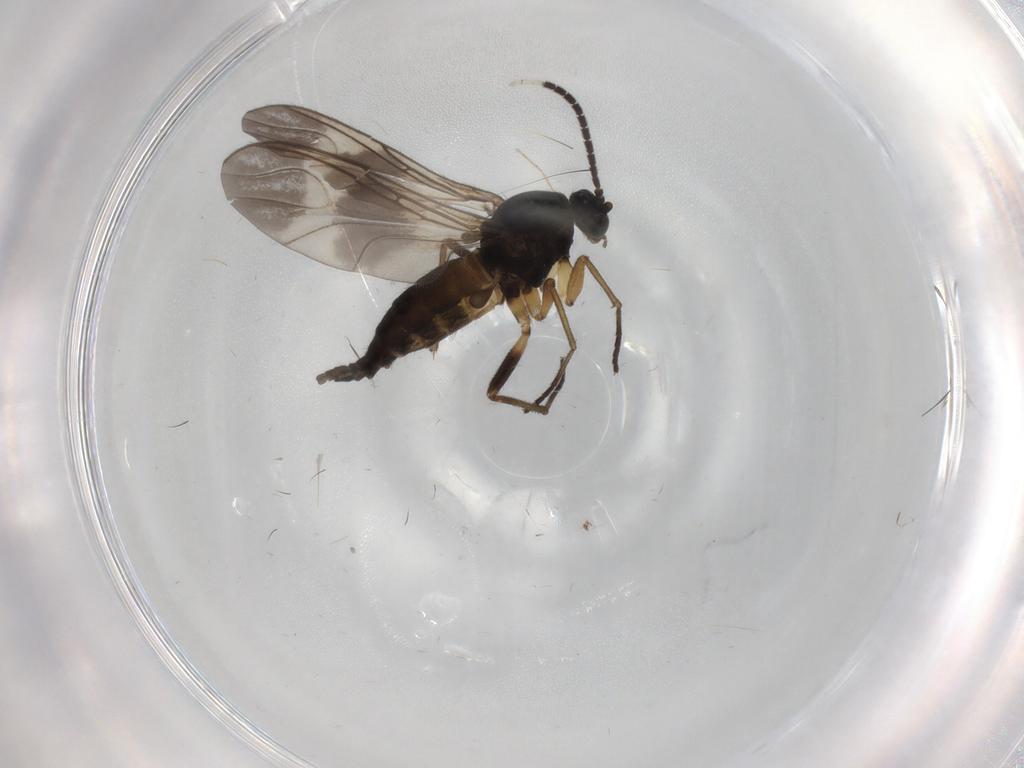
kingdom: Animalia
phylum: Arthropoda
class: Insecta
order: Diptera
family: Sciaridae
